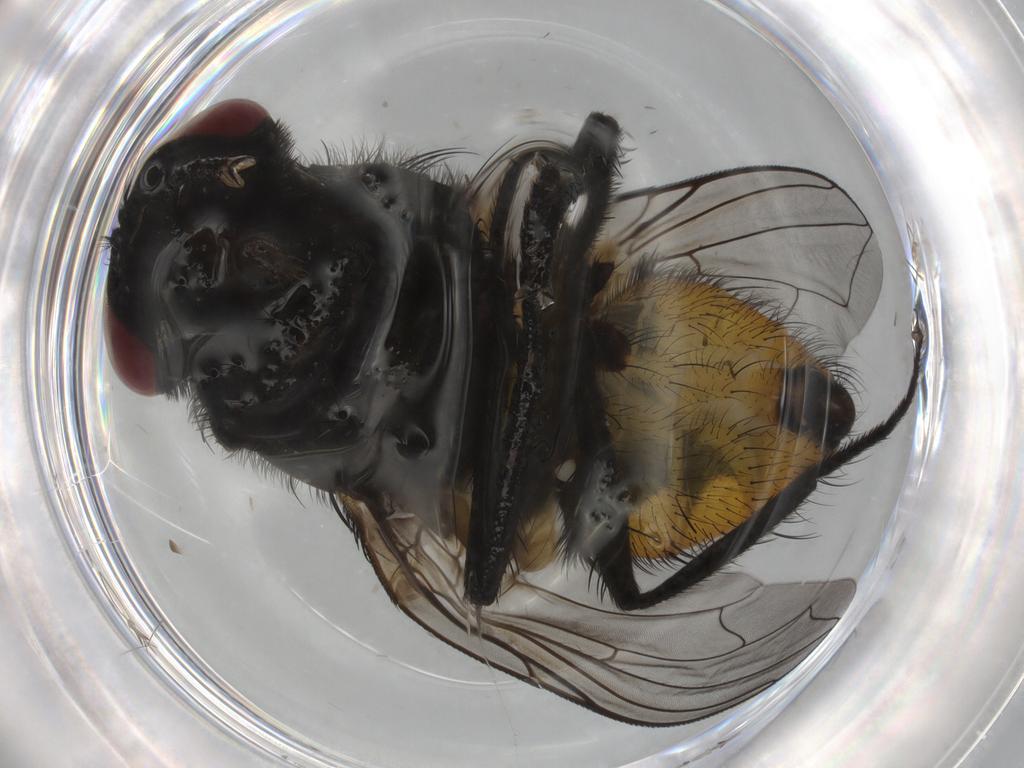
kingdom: Animalia
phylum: Arthropoda
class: Insecta
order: Diptera
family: Muscidae
